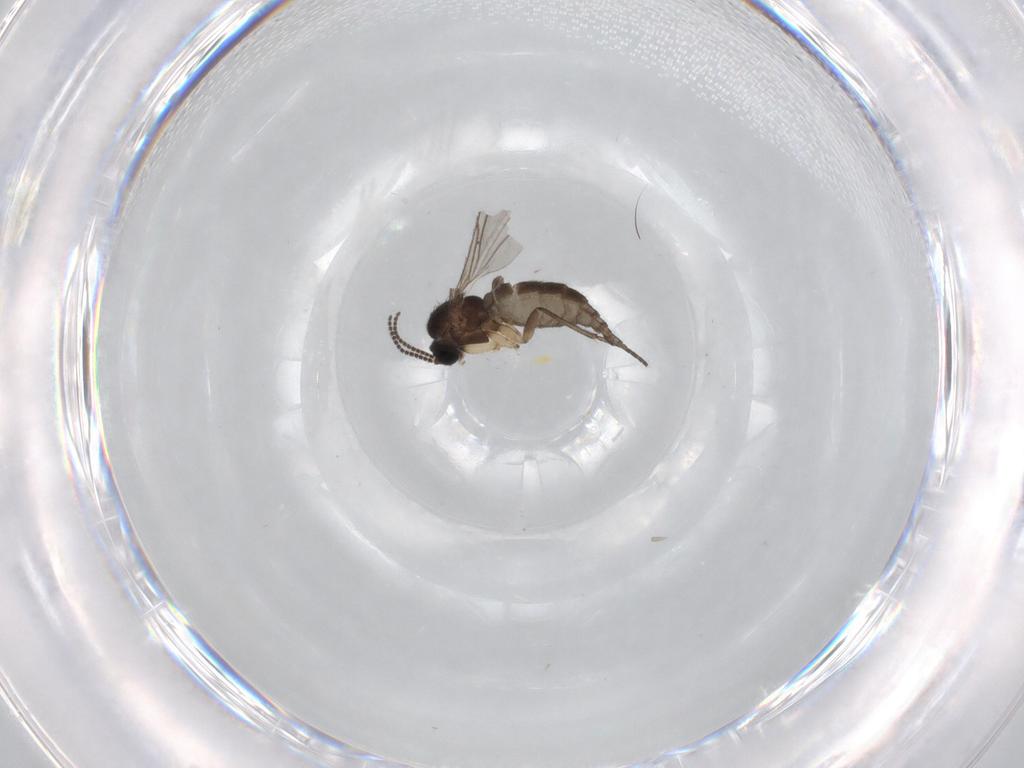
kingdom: Animalia
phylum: Arthropoda
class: Insecta
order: Diptera
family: Sciaridae
